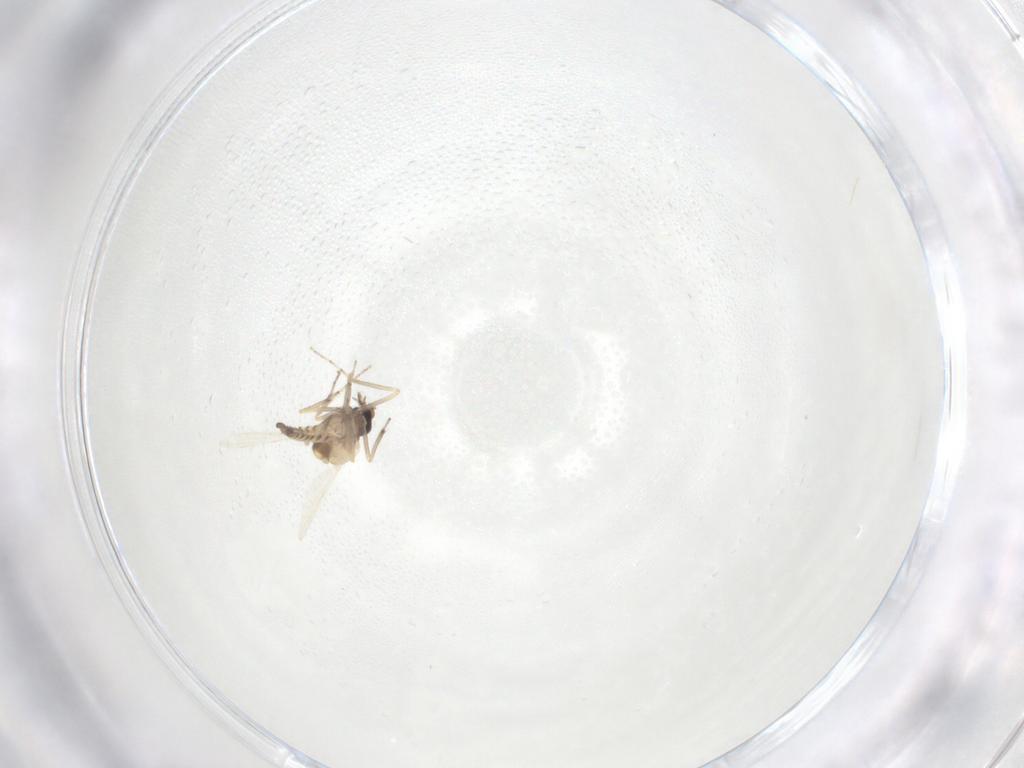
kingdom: Animalia
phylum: Arthropoda
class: Insecta
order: Diptera
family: Ceratopogonidae
